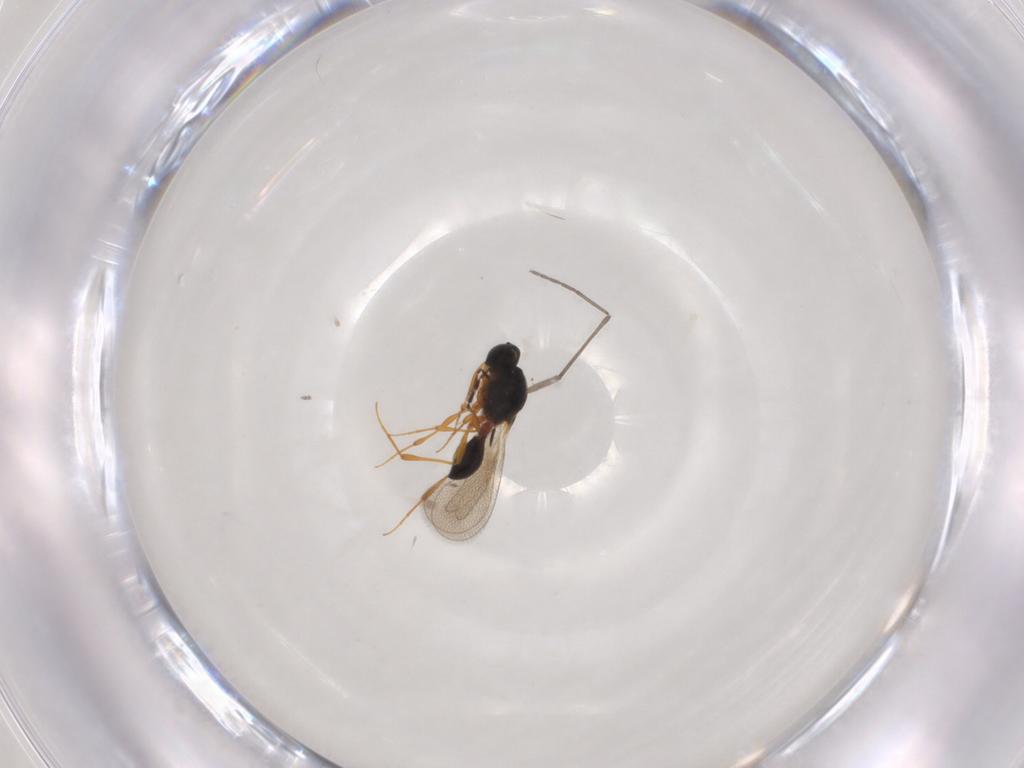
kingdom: Animalia
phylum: Arthropoda
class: Insecta
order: Hymenoptera
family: Platygastridae
